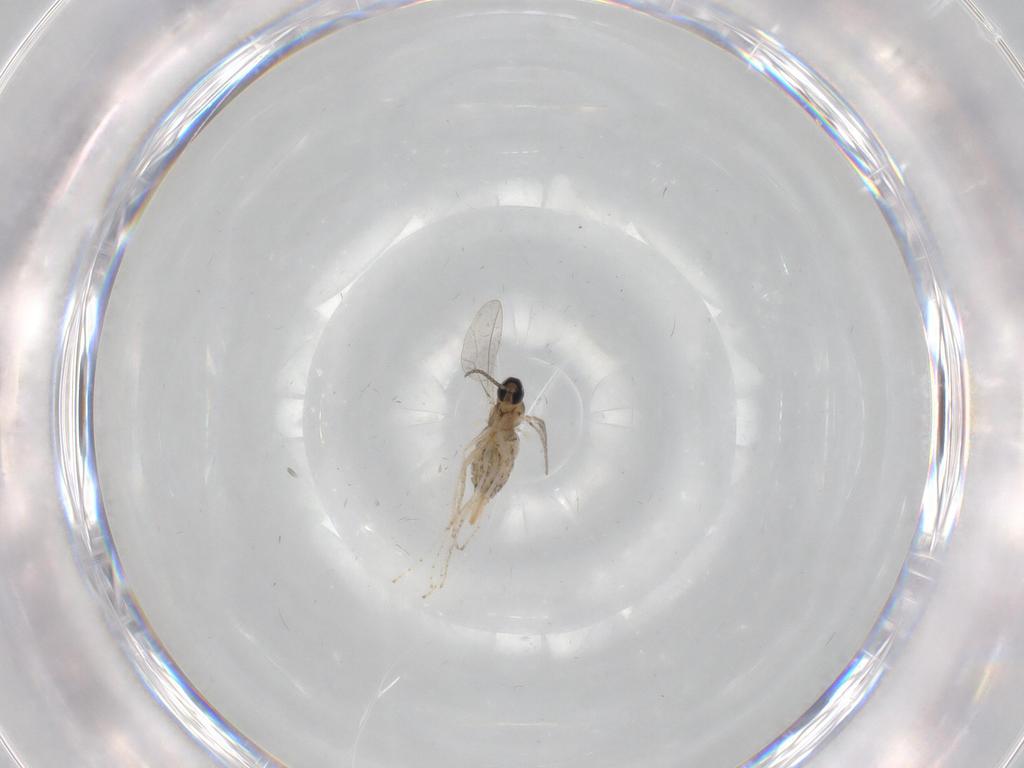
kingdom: Animalia
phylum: Arthropoda
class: Insecta
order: Diptera
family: Cecidomyiidae
